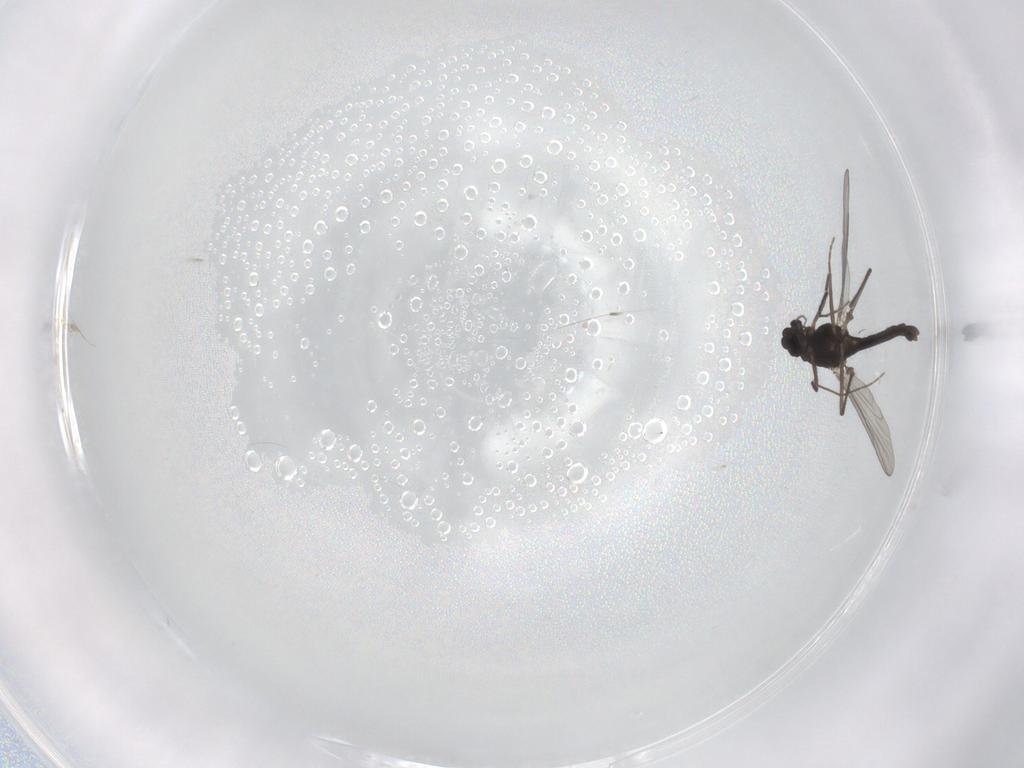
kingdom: Animalia
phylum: Arthropoda
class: Insecta
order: Diptera
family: Chironomidae
